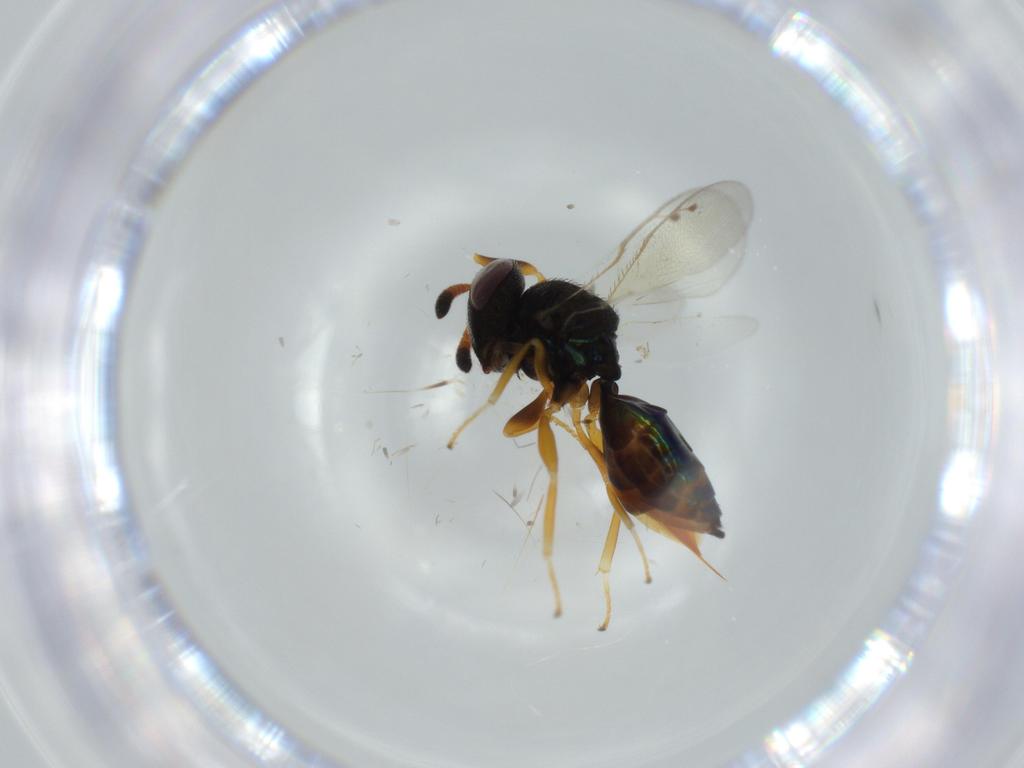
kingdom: Animalia
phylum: Arthropoda
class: Insecta
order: Hymenoptera
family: Agaonidae
